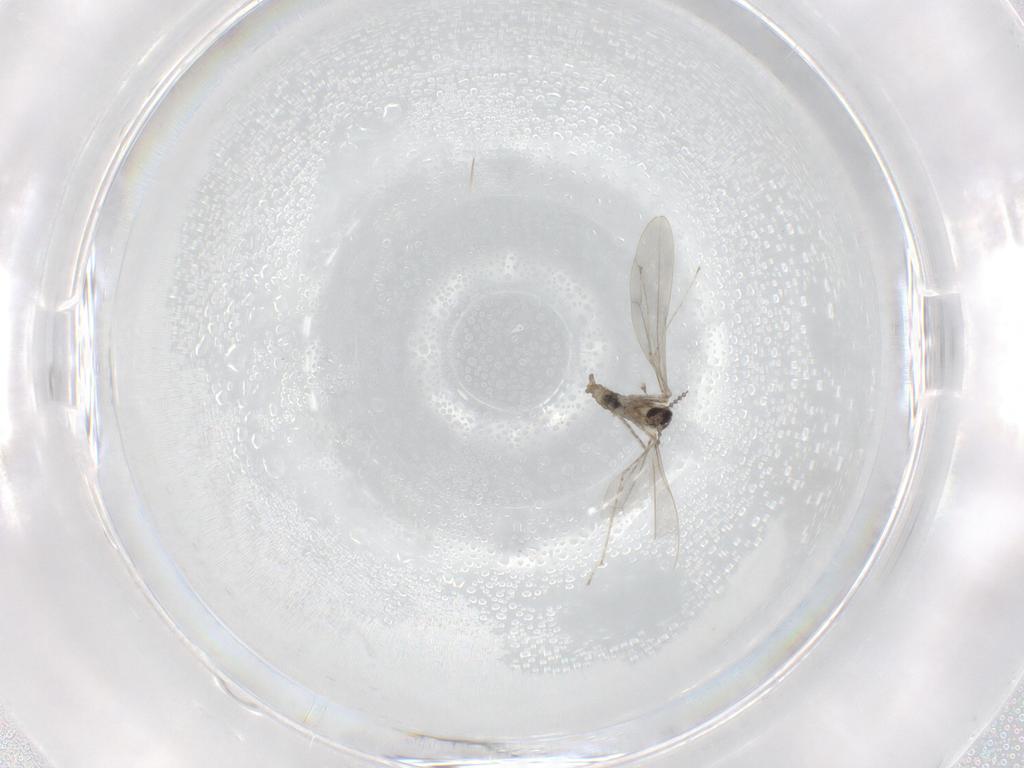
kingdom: Animalia
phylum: Arthropoda
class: Insecta
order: Diptera
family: Cecidomyiidae
